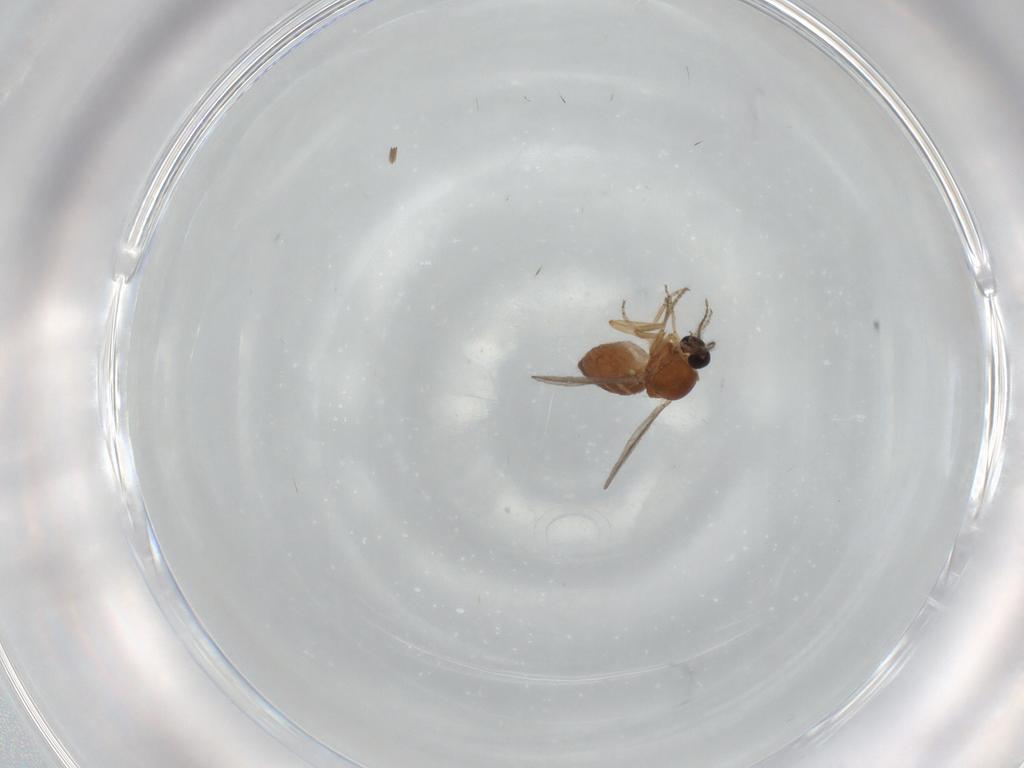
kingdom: Animalia
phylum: Arthropoda
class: Insecta
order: Diptera
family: Ceratopogonidae
